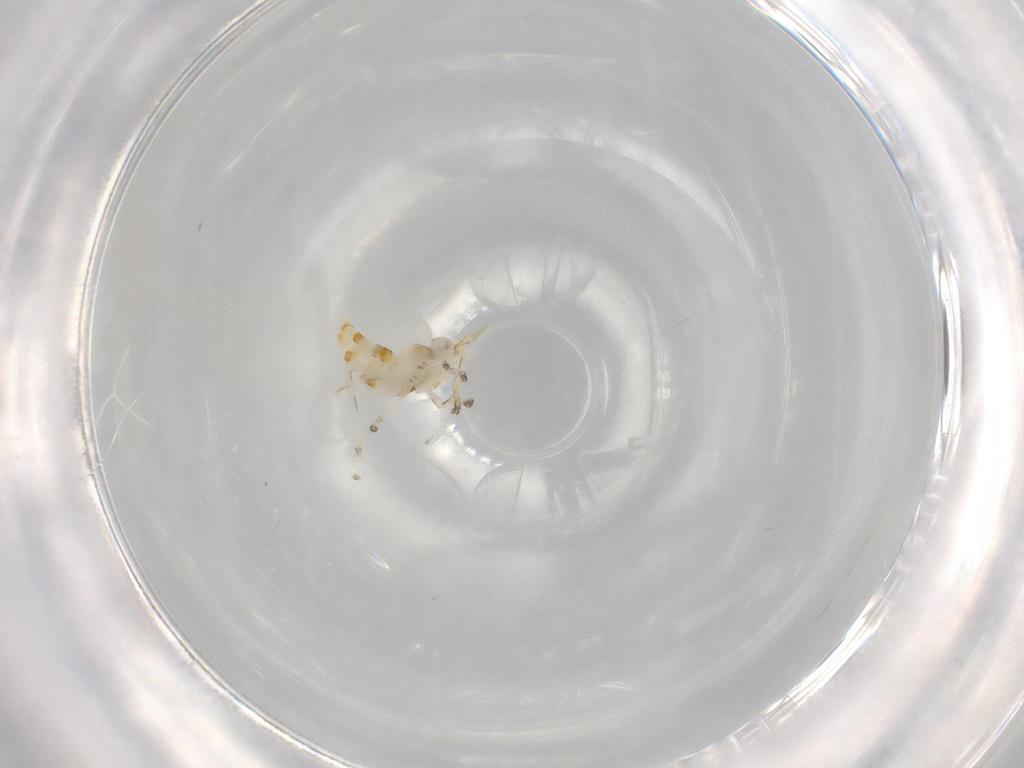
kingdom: Animalia
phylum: Arthropoda
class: Insecta
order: Hemiptera
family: Cicadellidae
